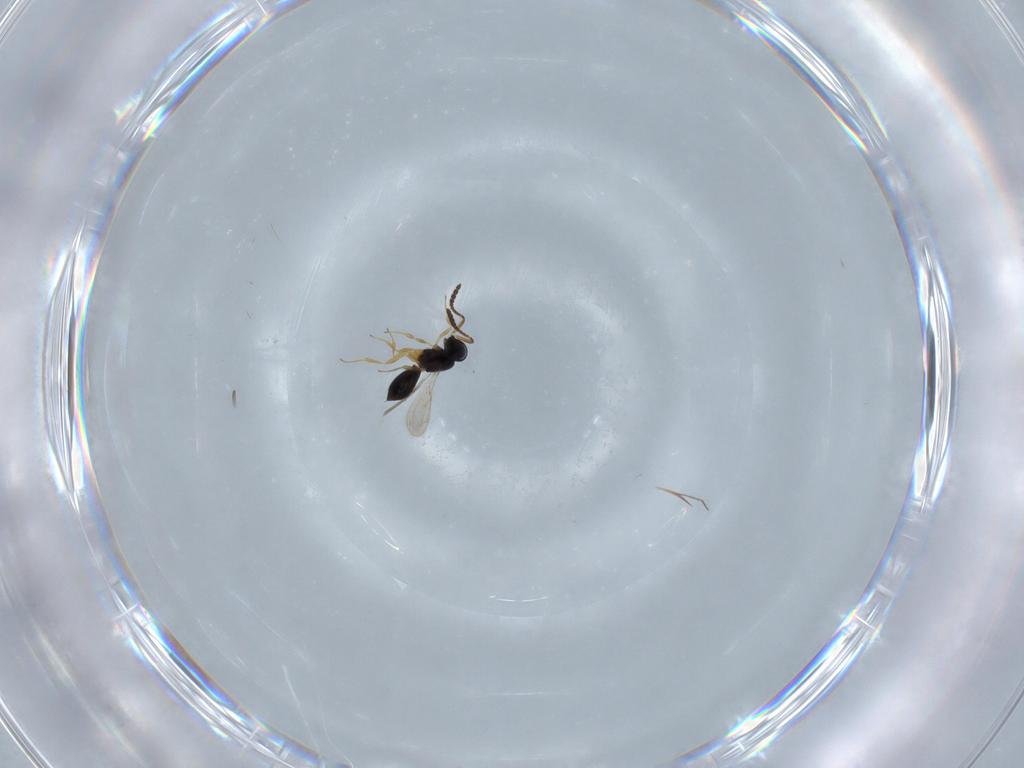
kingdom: Animalia
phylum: Arthropoda
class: Insecta
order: Hymenoptera
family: Scelionidae
